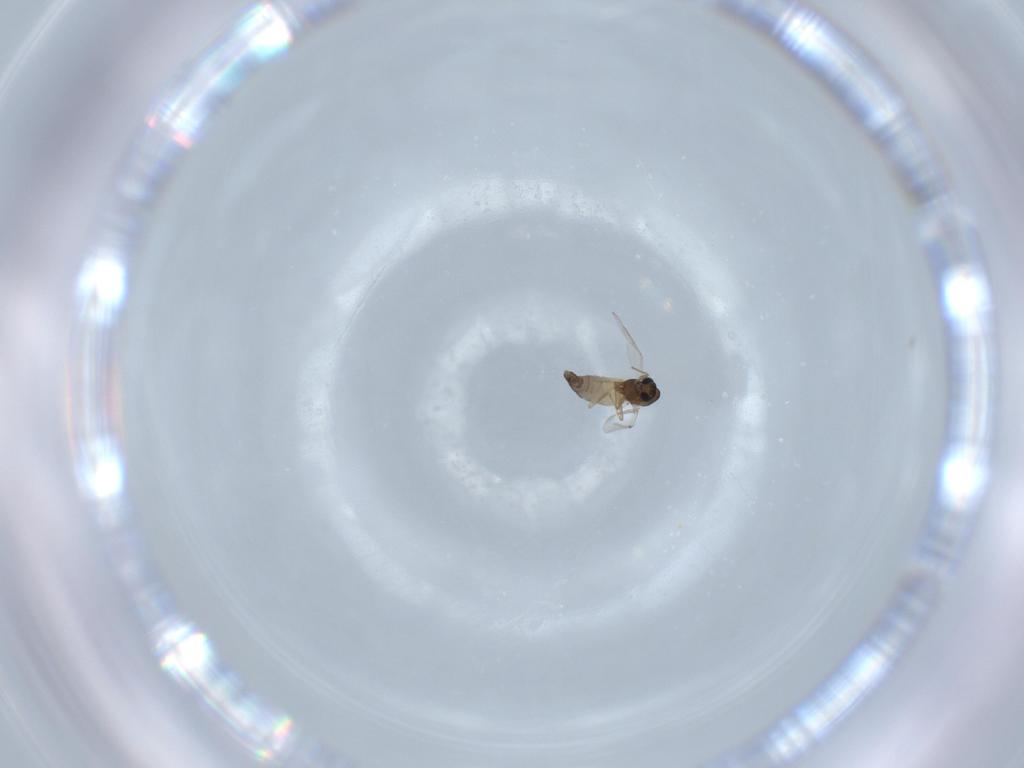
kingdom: Animalia
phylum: Arthropoda
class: Insecta
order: Diptera
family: Chironomidae
